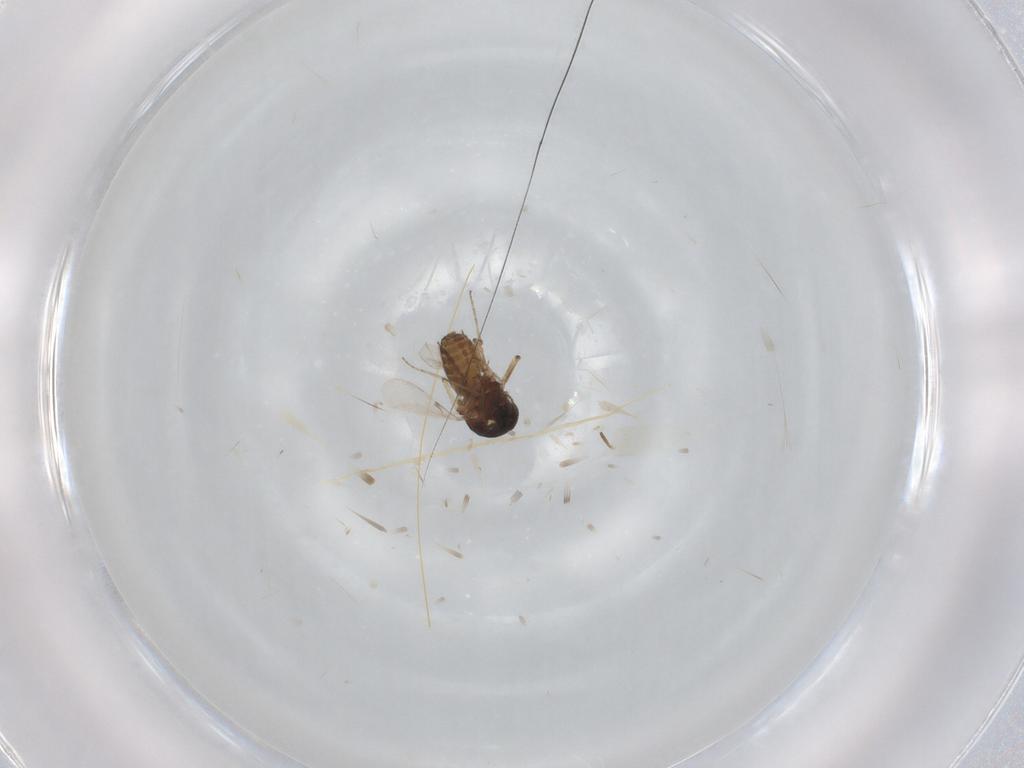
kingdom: Animalia
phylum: Arthropoda
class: Insecta
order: Diptera
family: Ceratopogonidae
